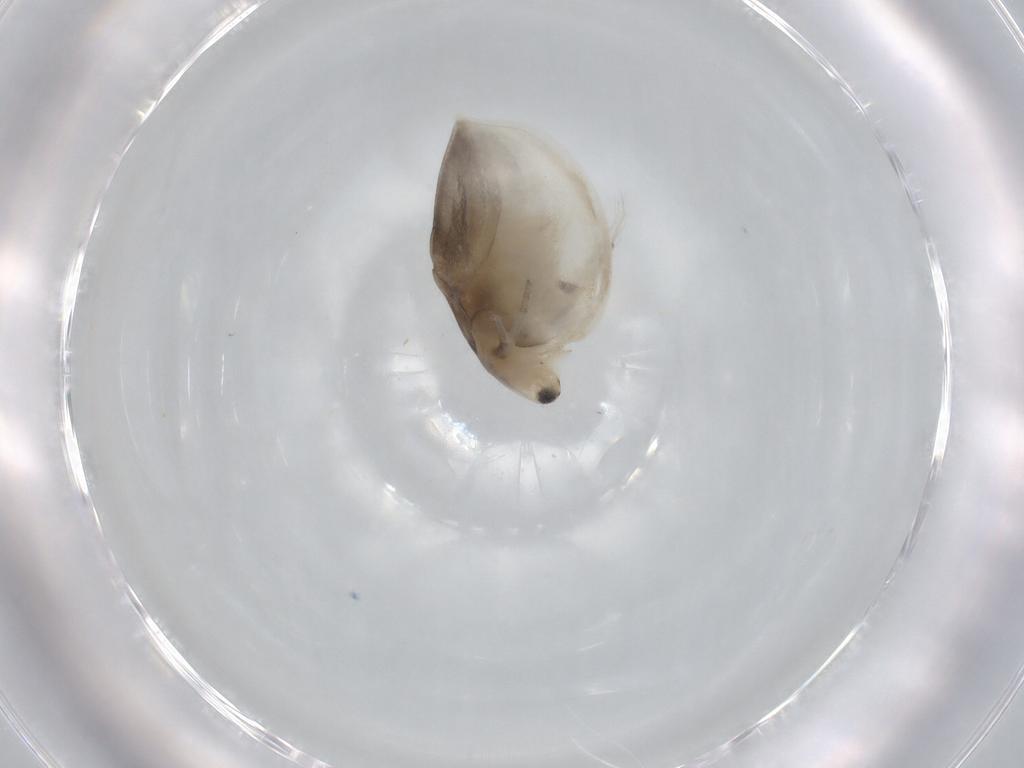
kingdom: Animalia
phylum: Arthropoda
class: Branchiopoda
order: Diplostraca
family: Daphniidae
